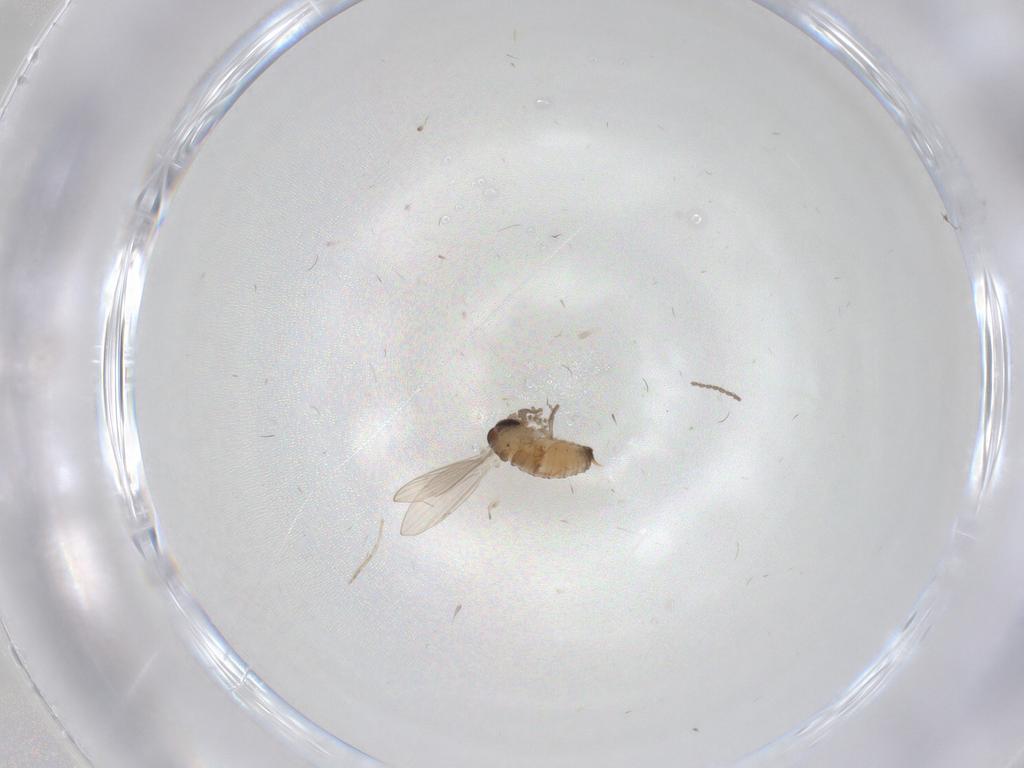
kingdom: Animalia
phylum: Arthropoda
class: Insecta
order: Diptera
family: Psychodidae
